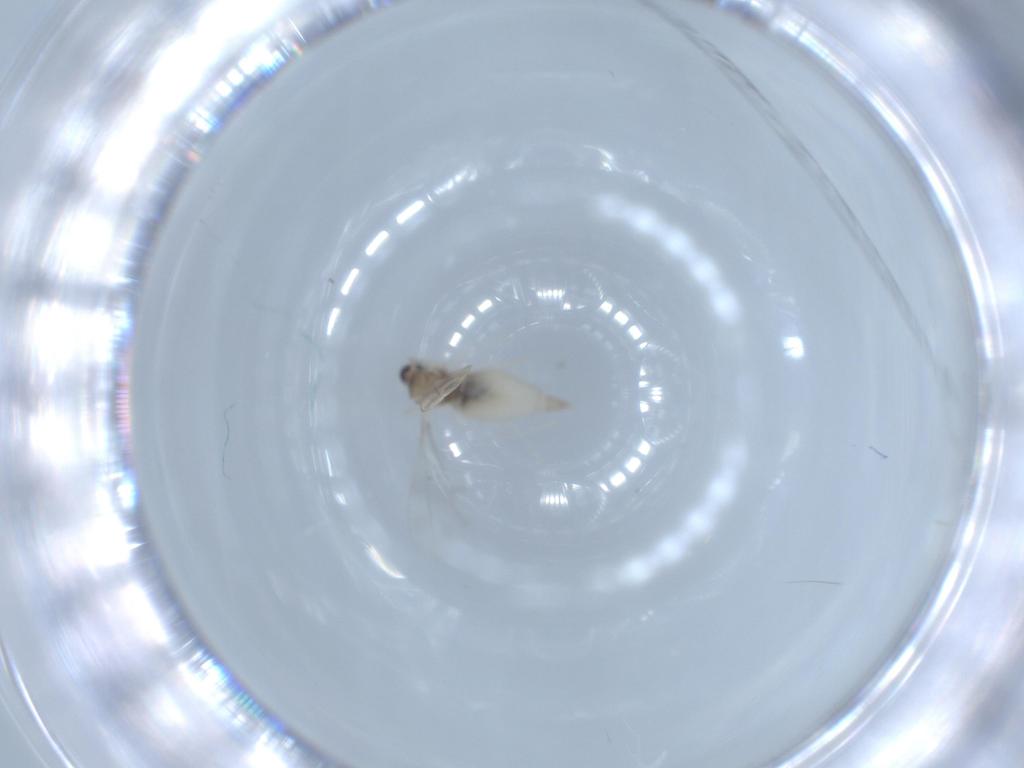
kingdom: Animalia
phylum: Arthropoda
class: Insecta
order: Diptera
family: Cecidomyiidae
